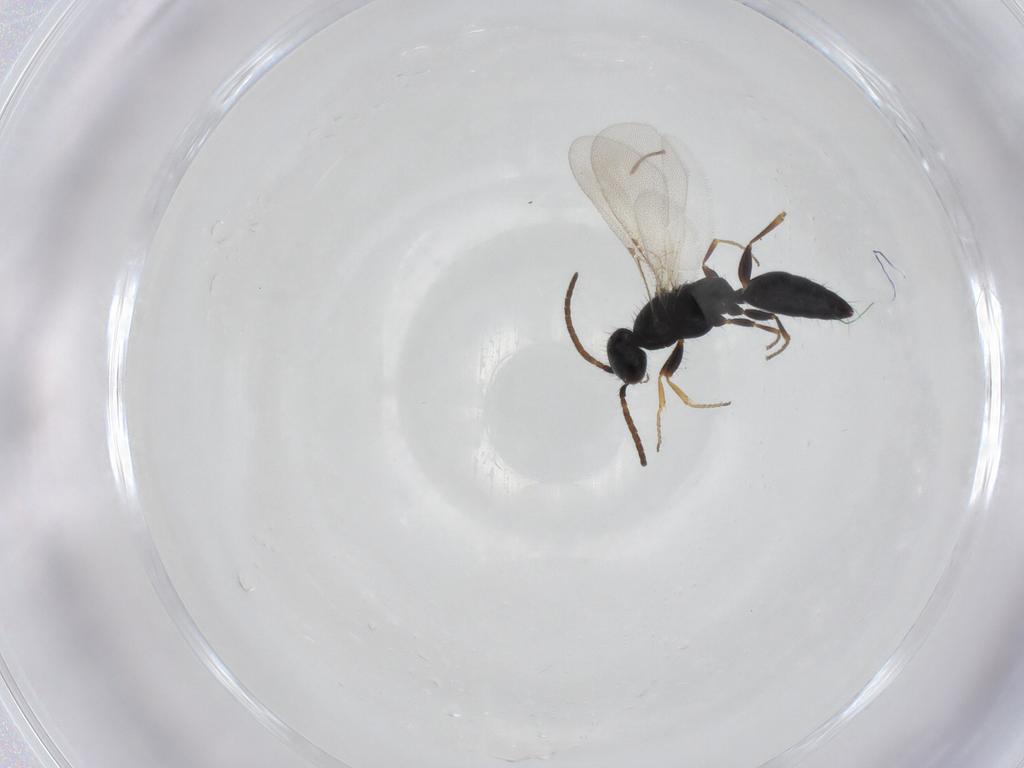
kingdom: Animalia
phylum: Arthropoda
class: Insecta
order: Hymenoptera
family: Bethylidae
